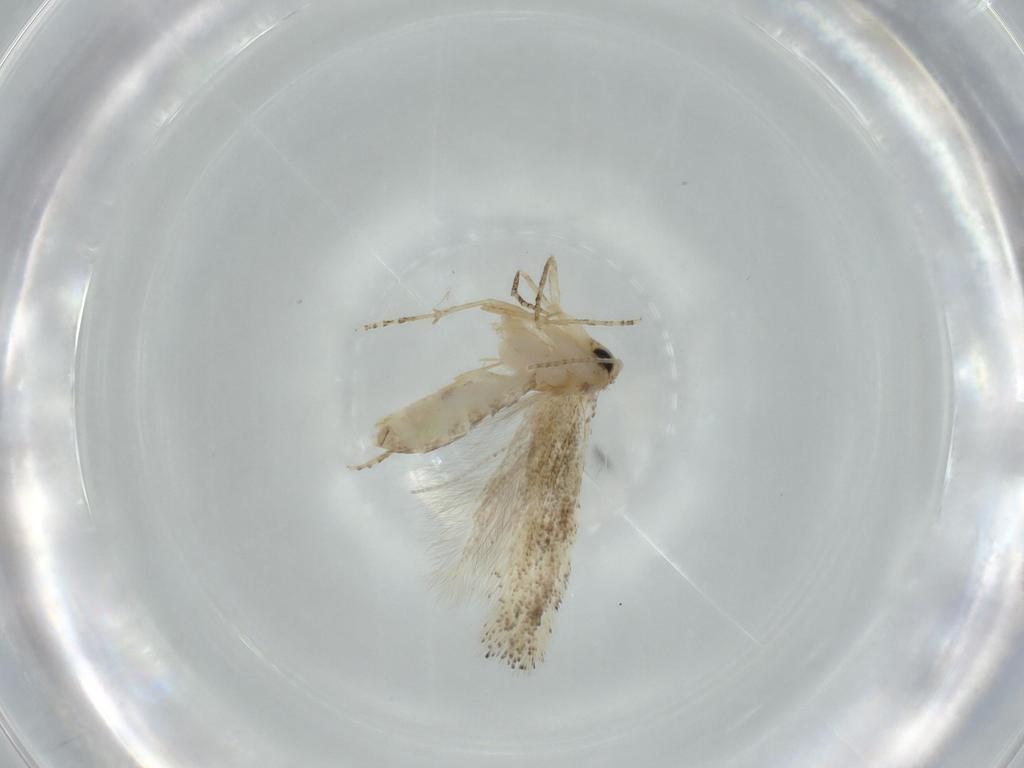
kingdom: Animalia
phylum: Arthropoda
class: Insecta
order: Lepidoptera
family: Bucculatricidae
